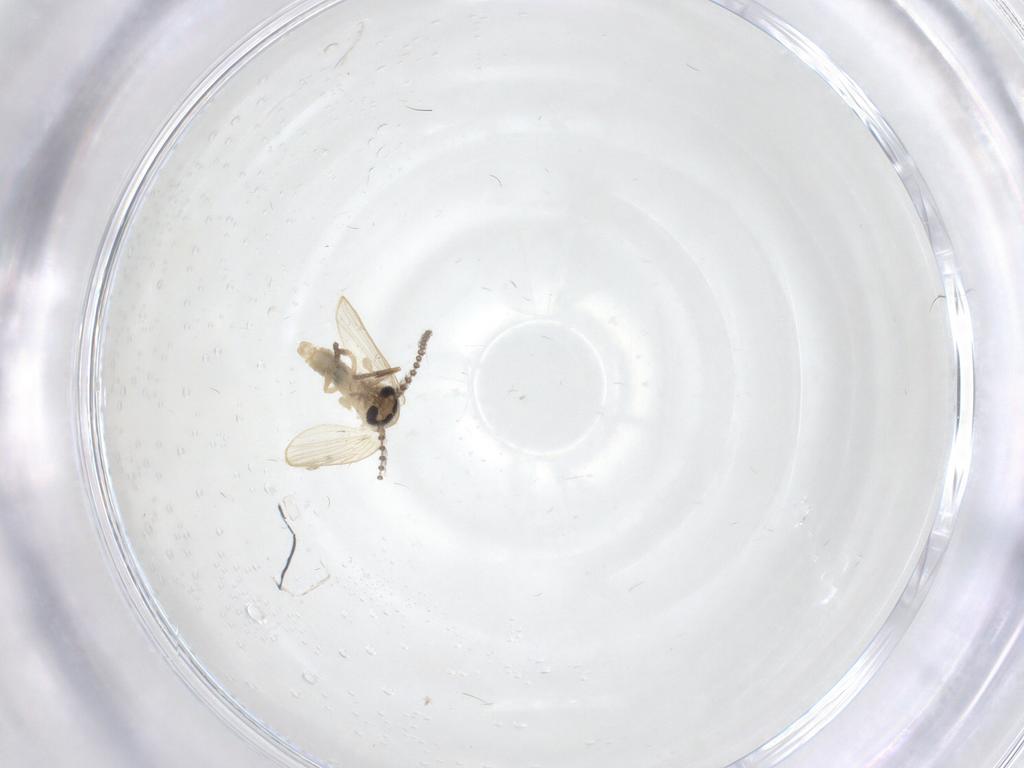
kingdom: Animalia
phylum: Arthropoda
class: Insecta
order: Diptera
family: Psychodidae
